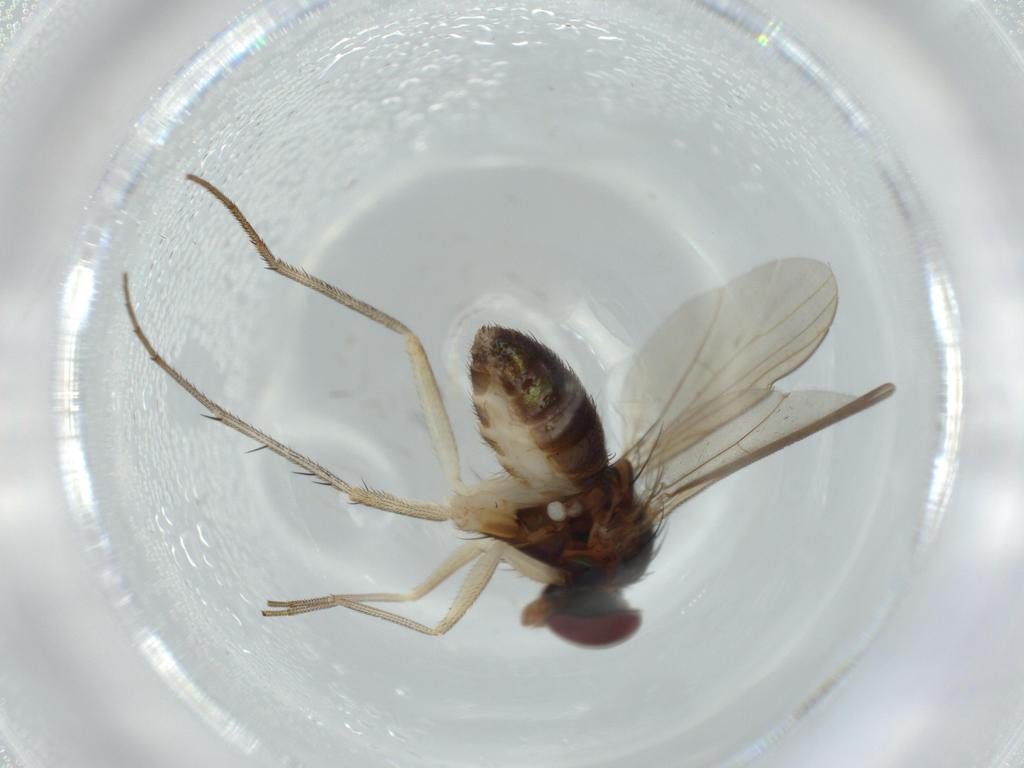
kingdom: Animalia
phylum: Arthropoda
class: Insecta
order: Diptera
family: Dolichopodidae
